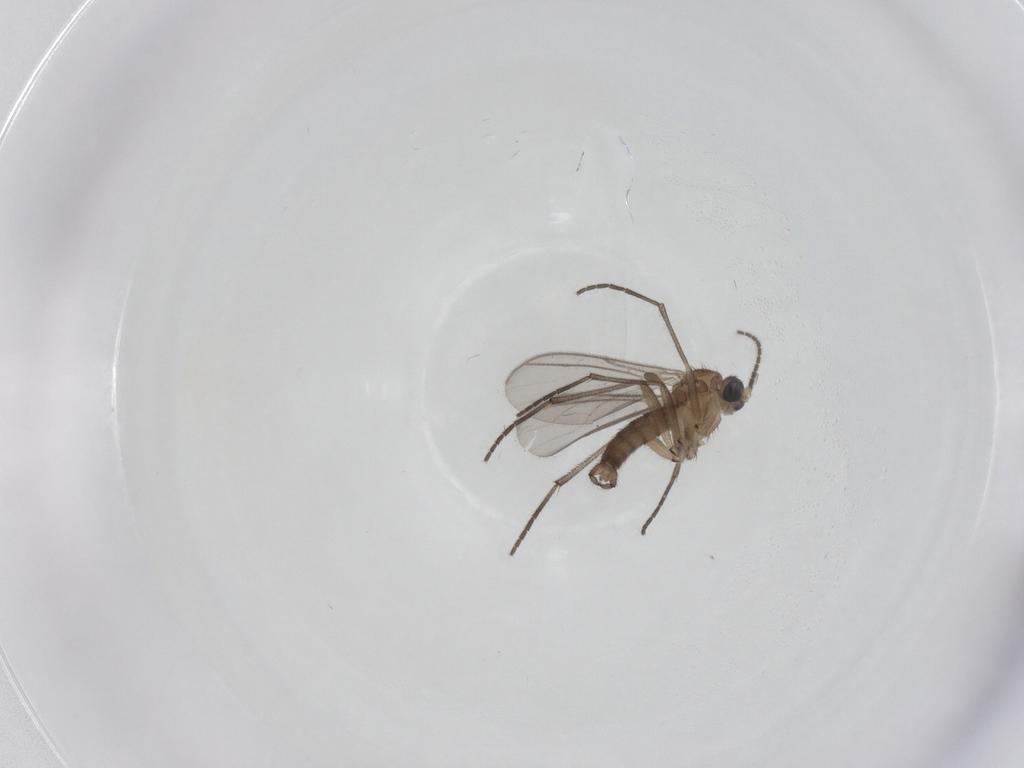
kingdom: Animalia
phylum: Arthropoda
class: Insecta
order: Diptera
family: Sciaridae
